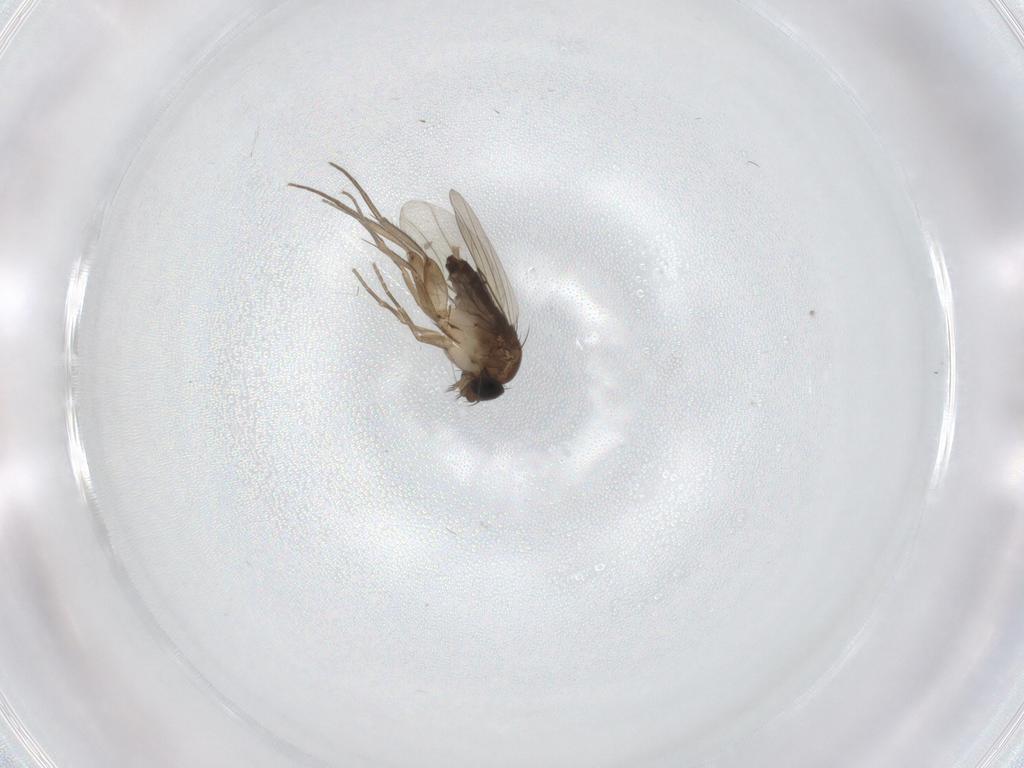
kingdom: Animalia
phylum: Arthropoda
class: Insecta
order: Diptera
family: Phoridae
